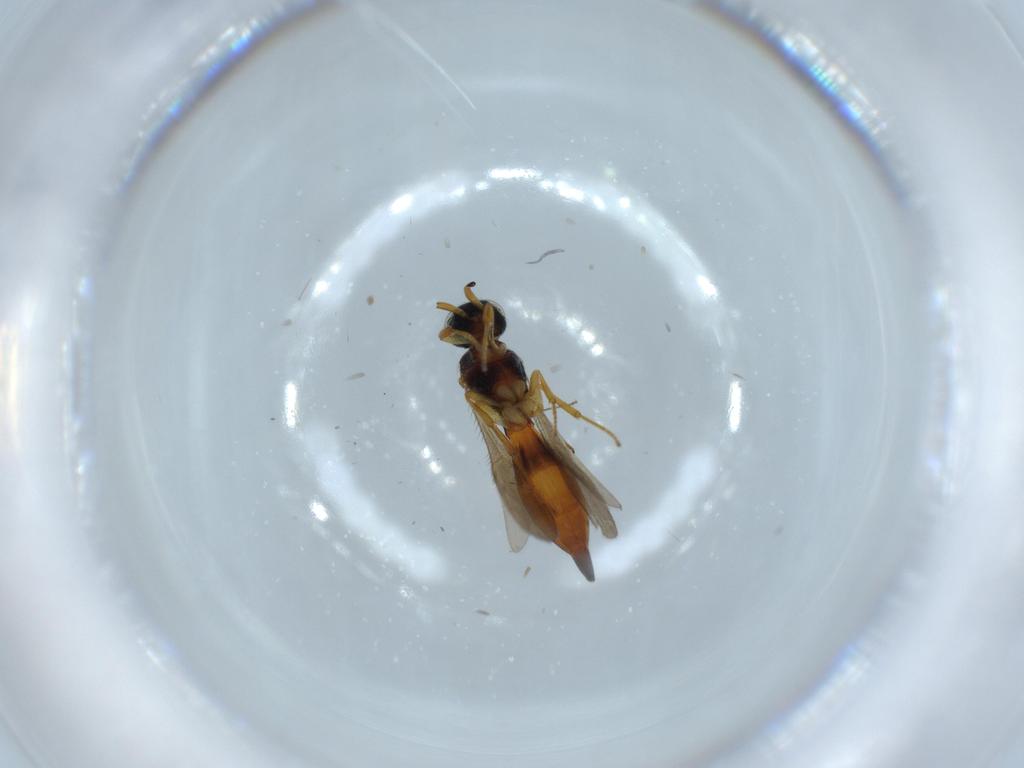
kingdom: Animalia
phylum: Arthropoda
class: Insecta
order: Hymenoptera
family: Scelionidae
